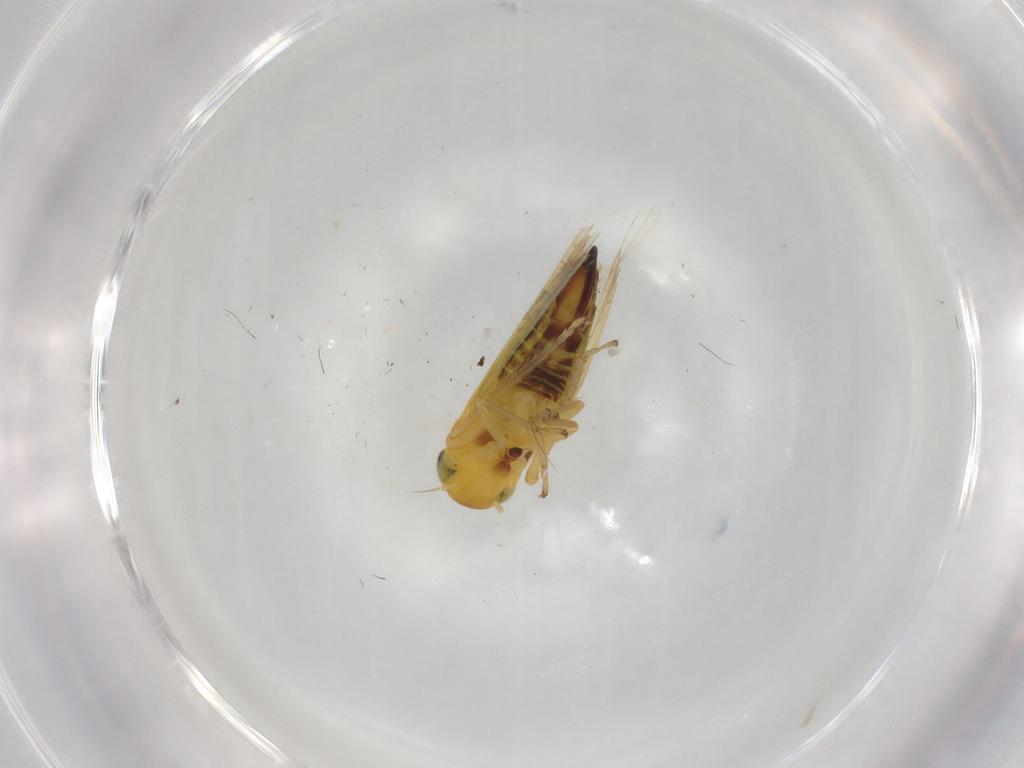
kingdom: Animalia
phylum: Arthropoda
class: Insecta
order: Hemiptera
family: Cicadellidae
